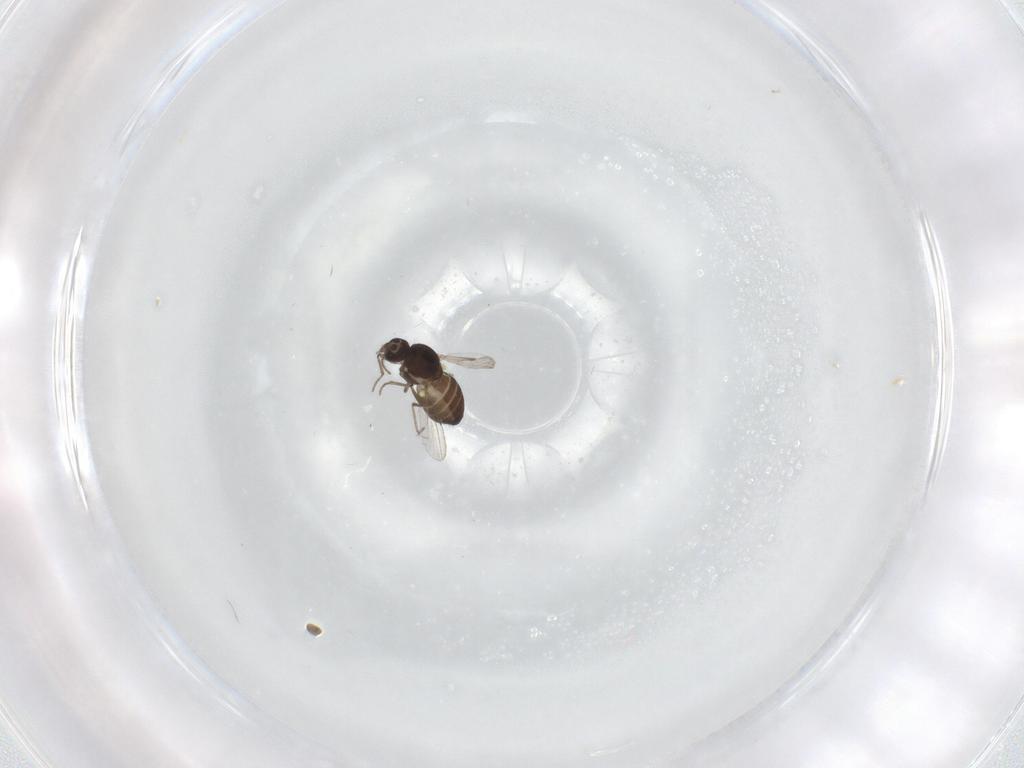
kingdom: Animalia
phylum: Arthropoda
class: Insecta
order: Diptera
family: Ceratopogonidae
